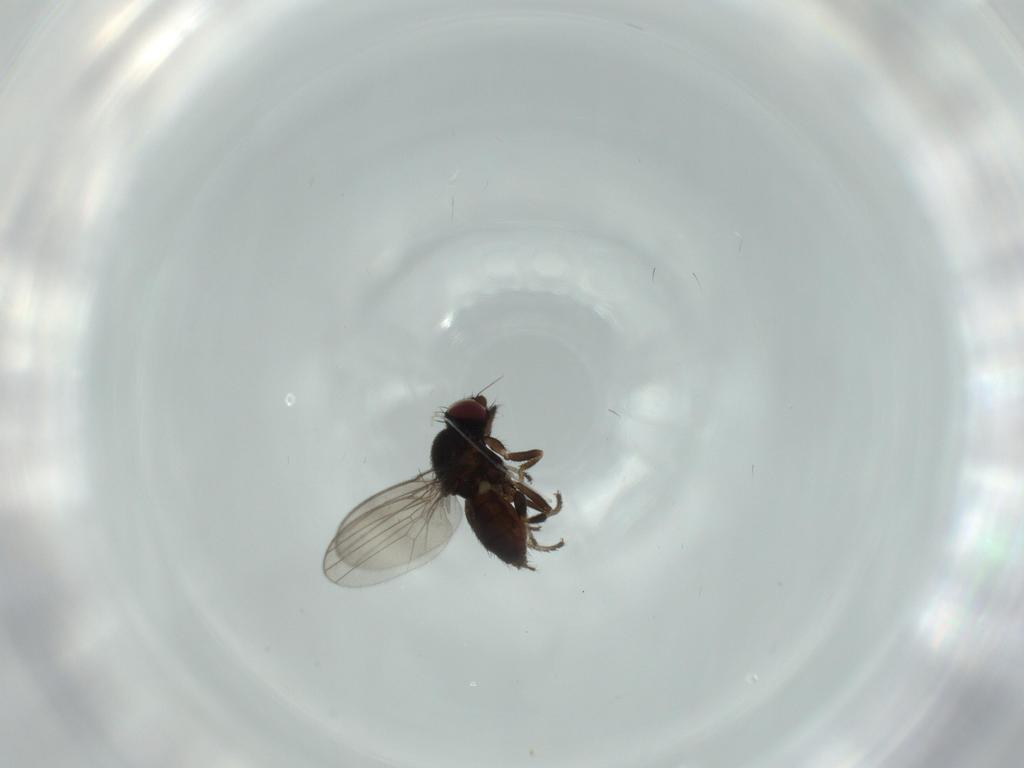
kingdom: Animalia
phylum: Arthropoda
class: Insecta
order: Diptera
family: Milichiidae
